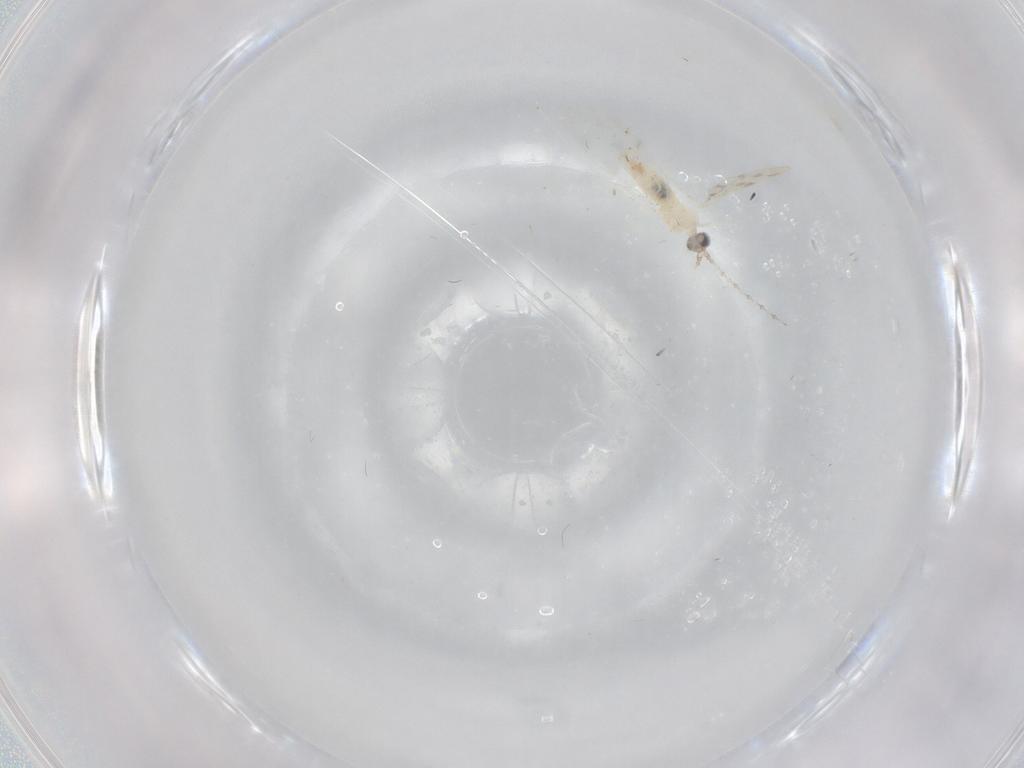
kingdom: Animalia
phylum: Arthropoda
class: Insecta
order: Diptera
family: Cecidomyiidae
